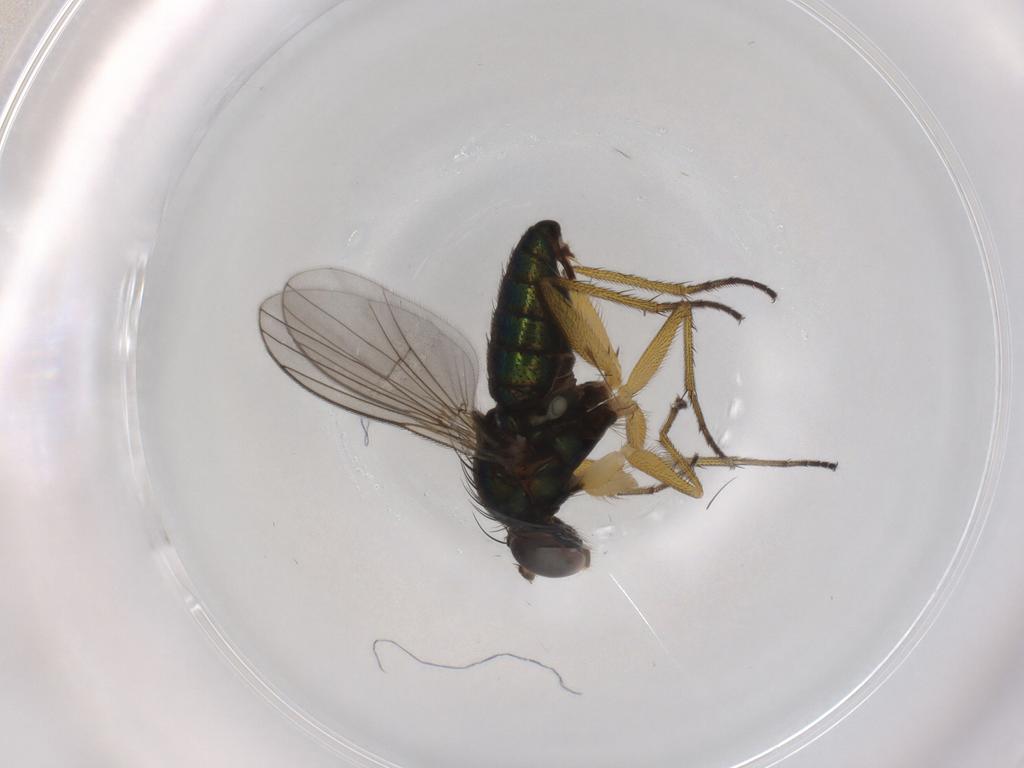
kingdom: Animalia
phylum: Arthropoda
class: Insecta
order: Diptera
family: Dolichopodidae
